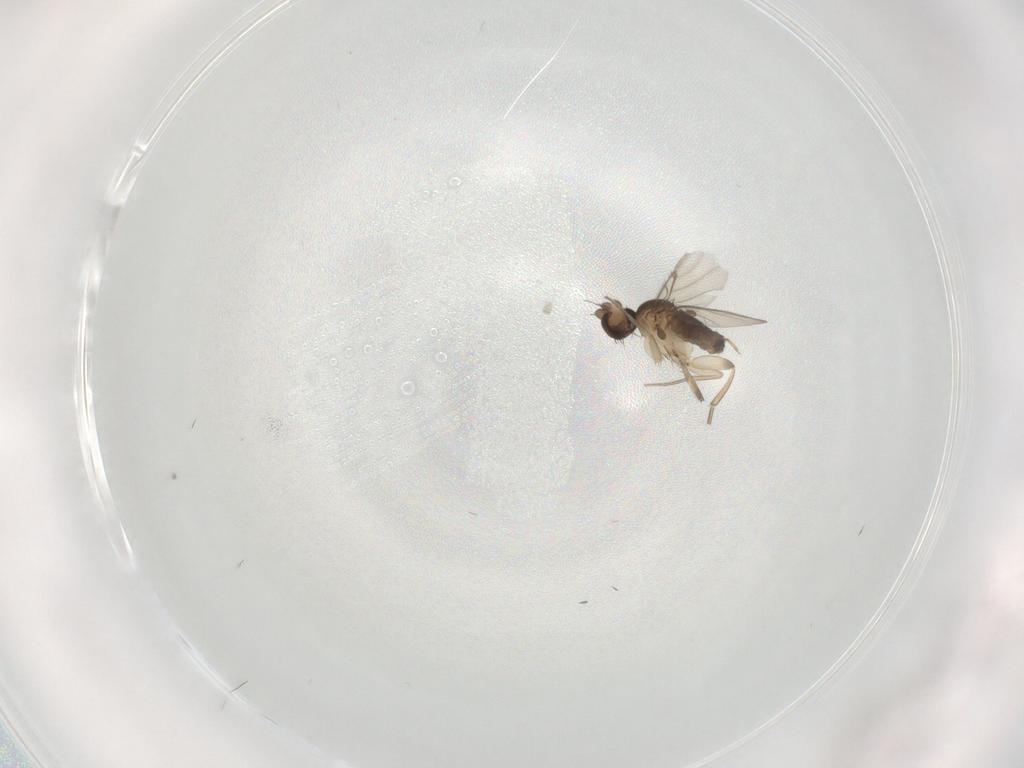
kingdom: Animalia
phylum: Arthropoda
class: Insecta
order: Diptera
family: Phoridae
